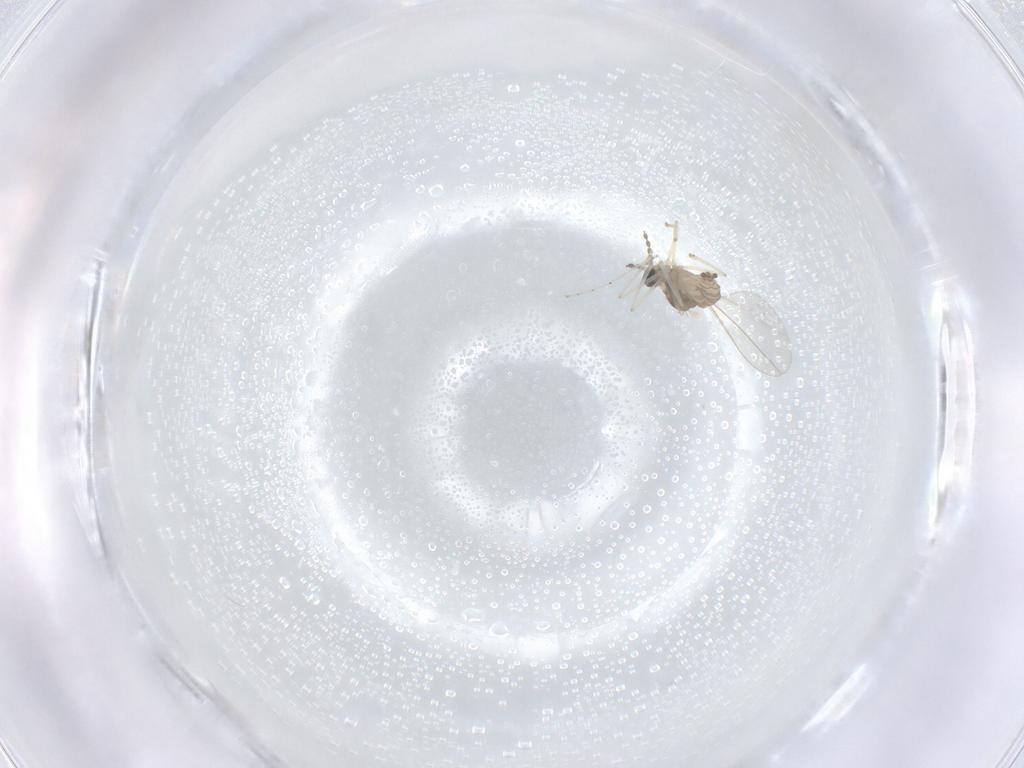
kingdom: Animalia
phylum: Arthropoda
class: Insecta
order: Diptera
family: Cecidomyiidae
